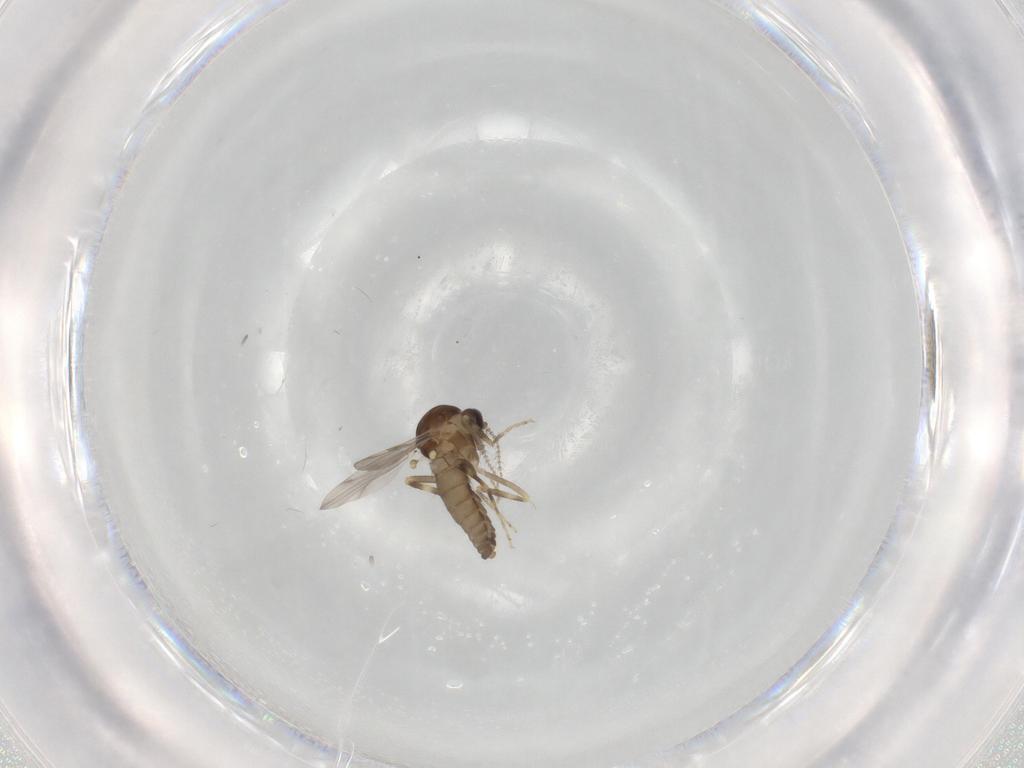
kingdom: Animalia
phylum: Arthropoda
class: Insecta
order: Diptera
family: Ceratopogonidae
